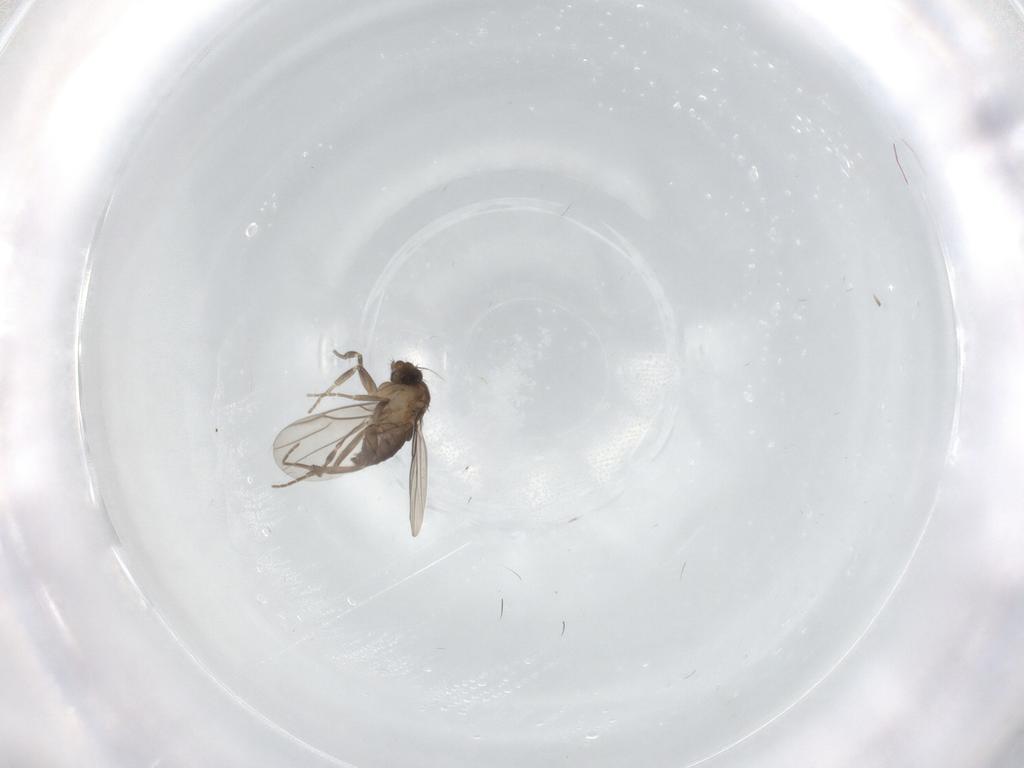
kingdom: Animalia
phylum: Arthropoda
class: Insecta
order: Diptera
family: Phoridae
